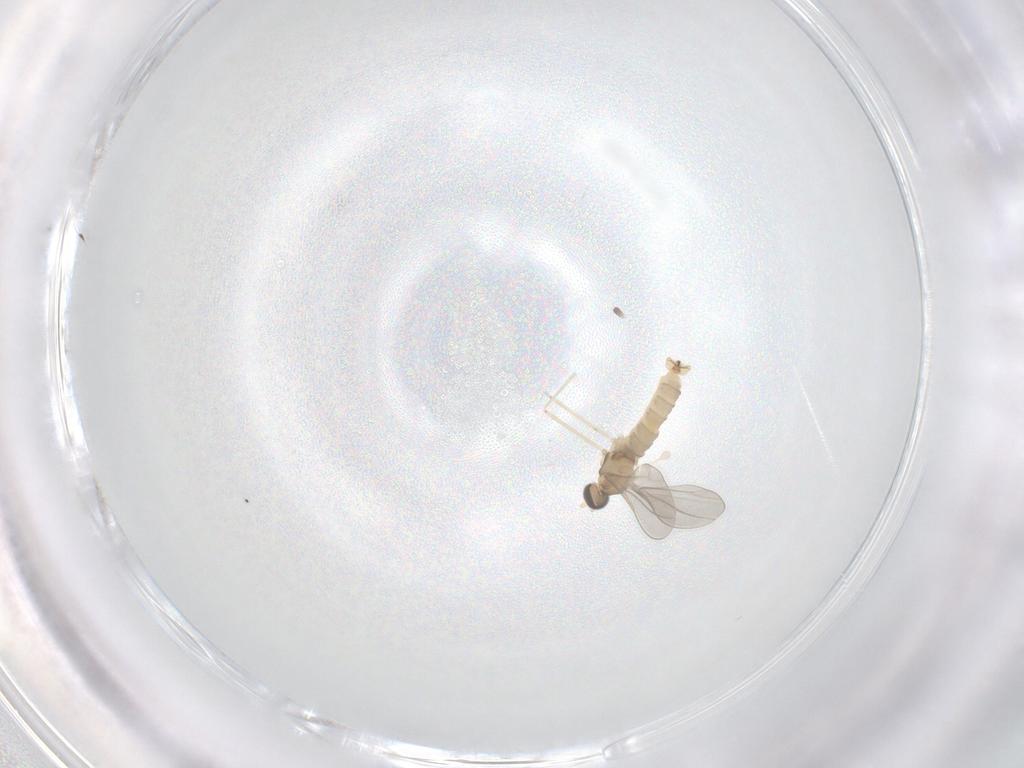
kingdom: Animalia
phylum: Arthropoda
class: Insecta
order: Diptera
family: Cecidomyiidae
